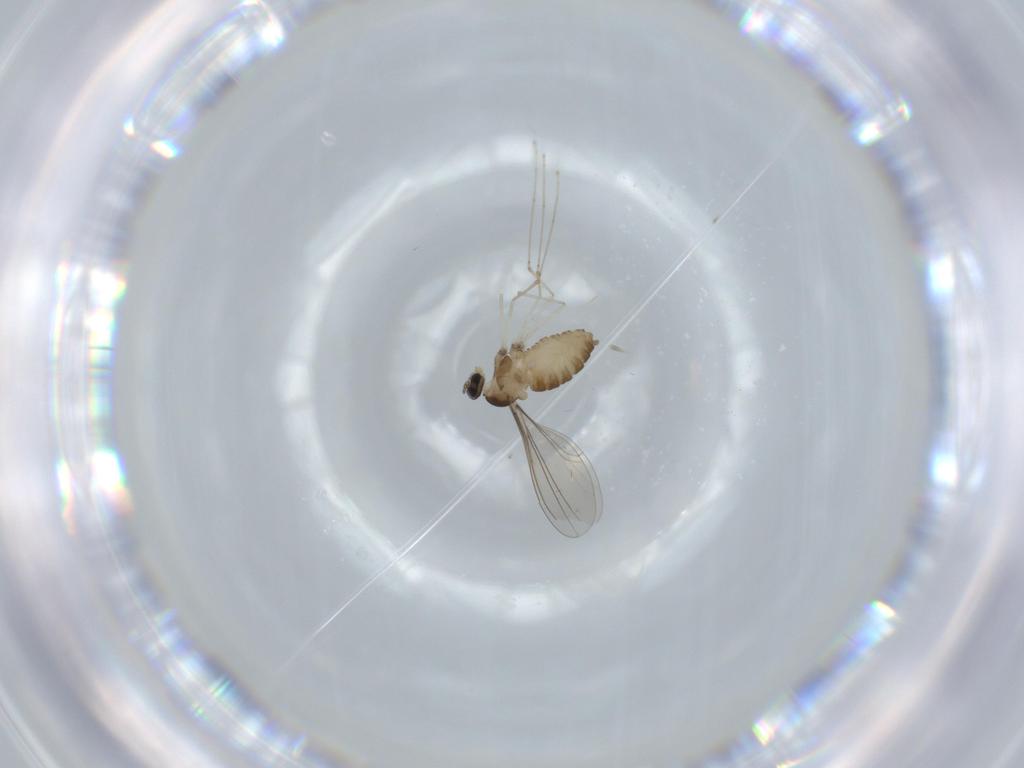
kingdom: Animalia
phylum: Arthropoda
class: Insecta
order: Diptera
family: Cecidomyiidae
